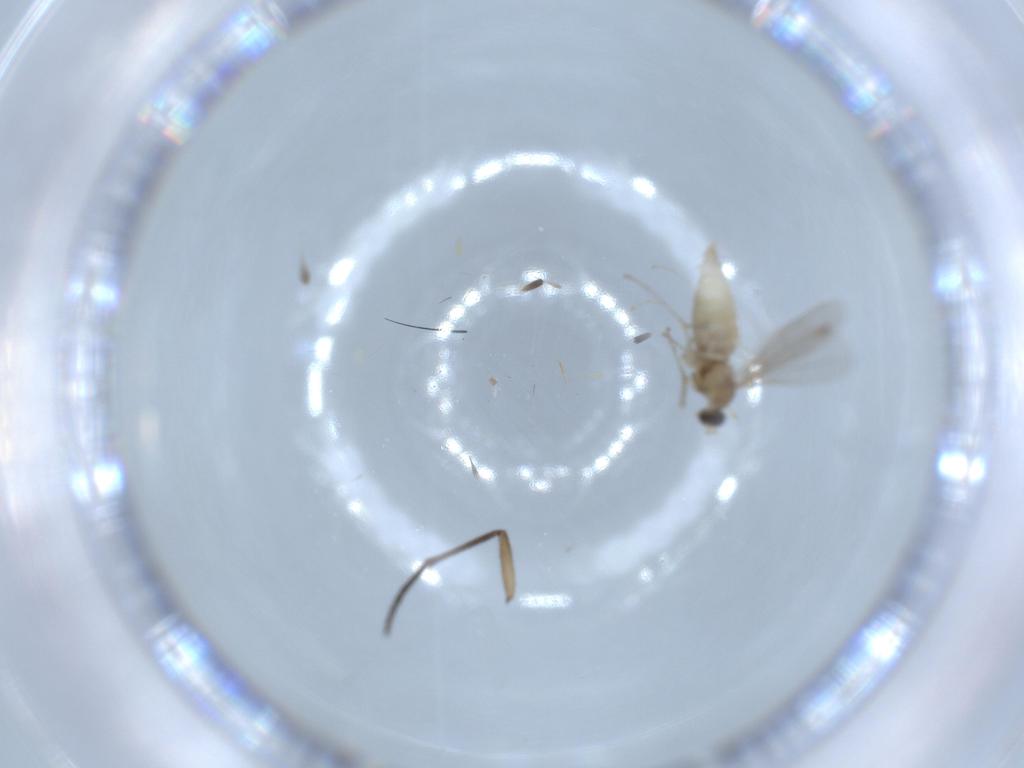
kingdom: Animalia
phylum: Arthropoda
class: Insecta
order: Diptera
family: Cecidomyiidae
